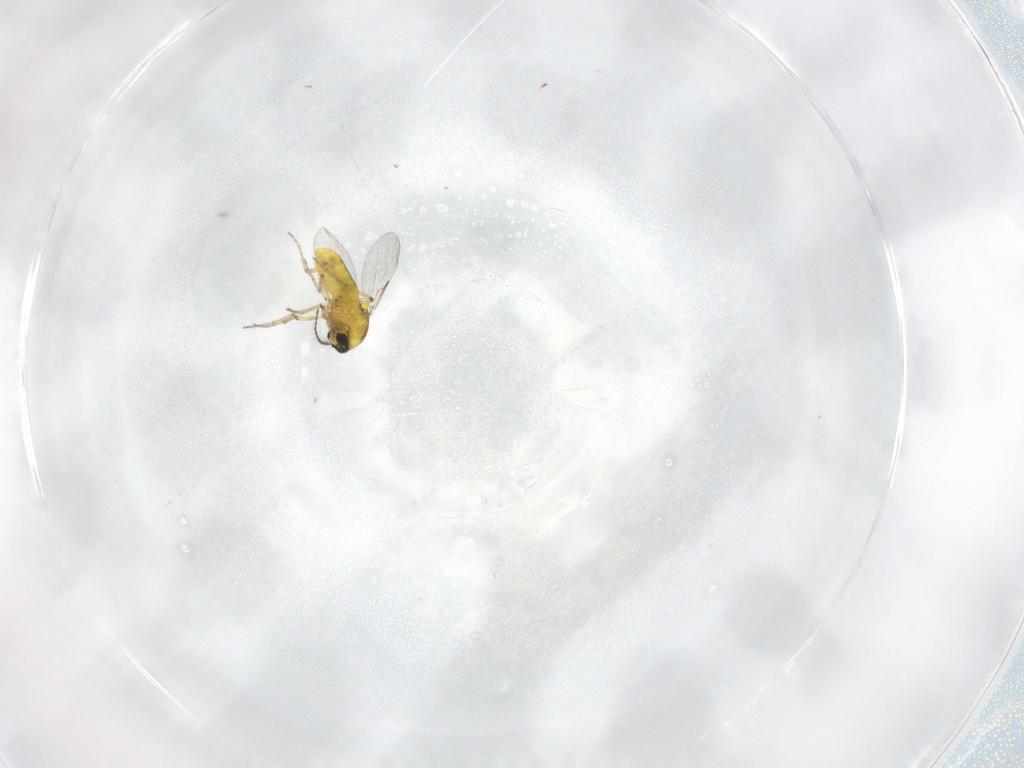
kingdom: Animalia
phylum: Arthropoda
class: Insecta
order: Diptera
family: Ceratopogonidae
